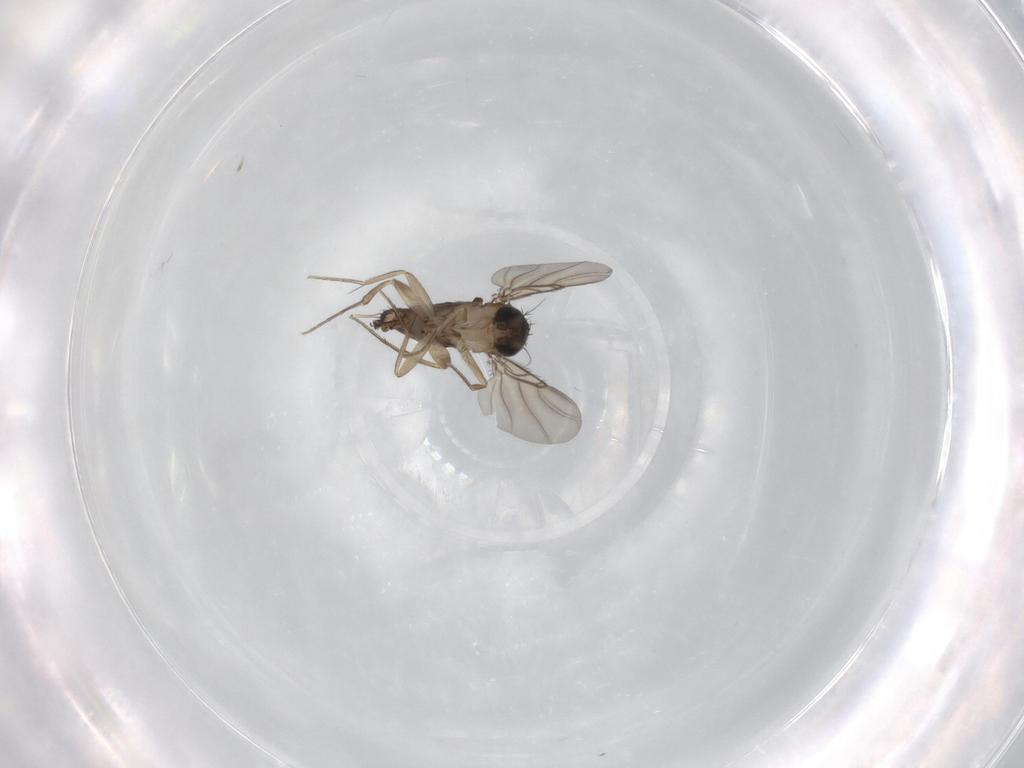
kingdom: Animalia
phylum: Arthropoda
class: Insecta
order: Diptera
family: Phoridae
